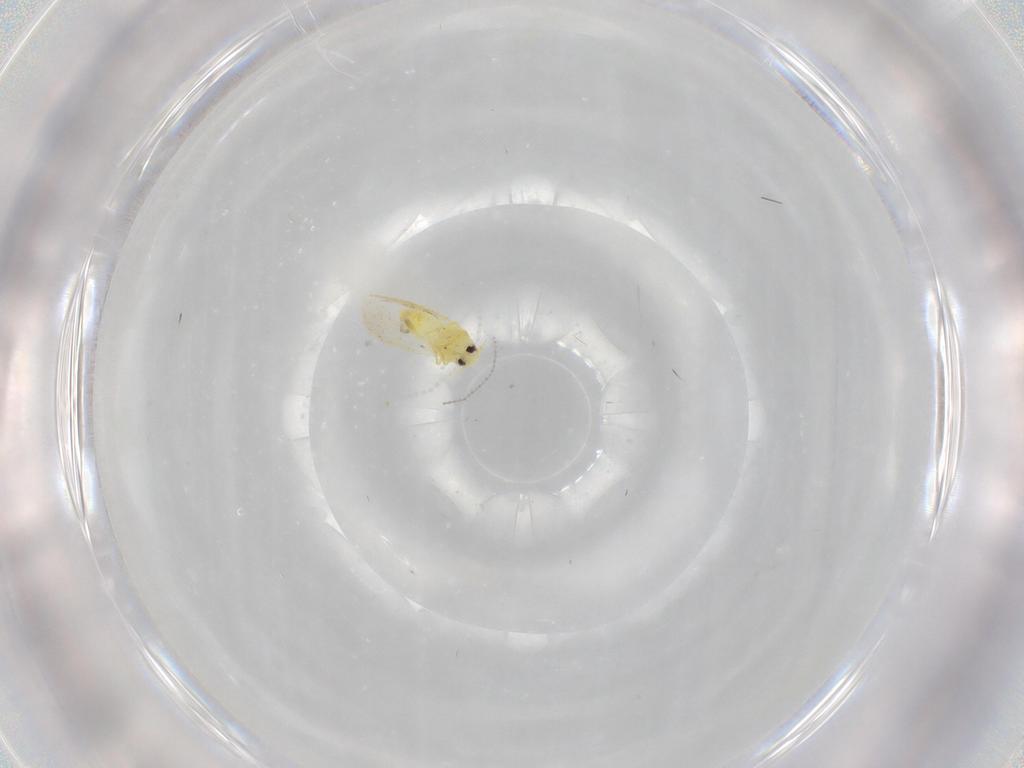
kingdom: Animalia
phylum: Arthropoda
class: Insecta
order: Hemiptera
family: Aleyrodidae
